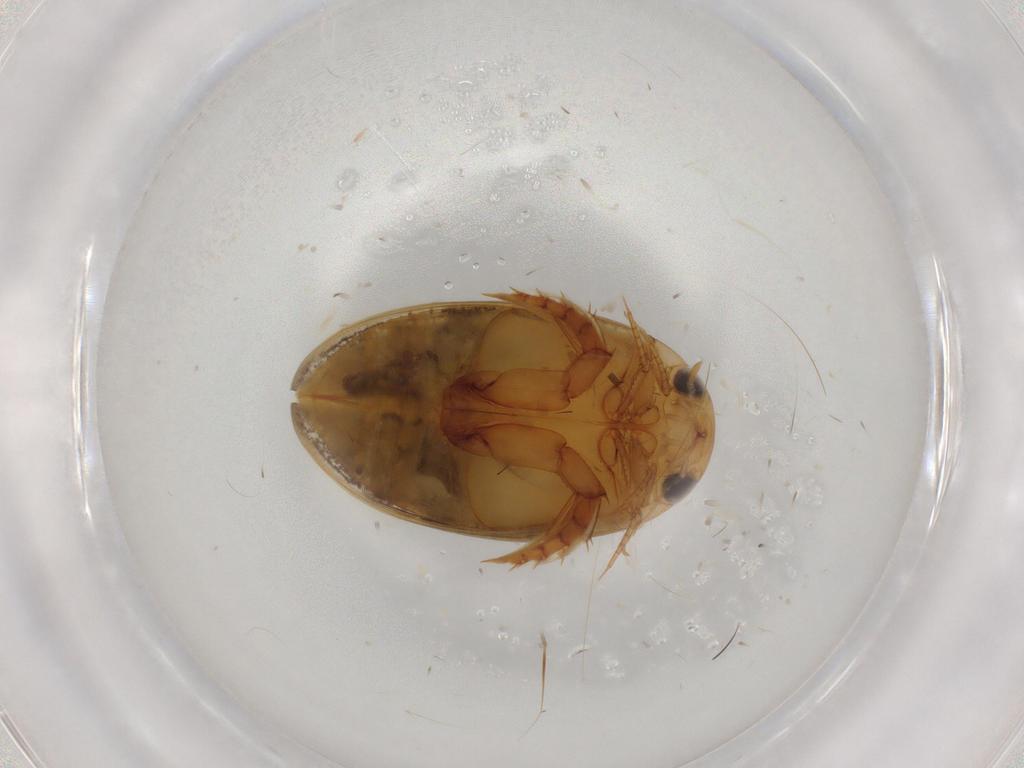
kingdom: Animalia
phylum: Arthropoda
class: Insecta
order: Coleoptera
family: Dytiscidae
